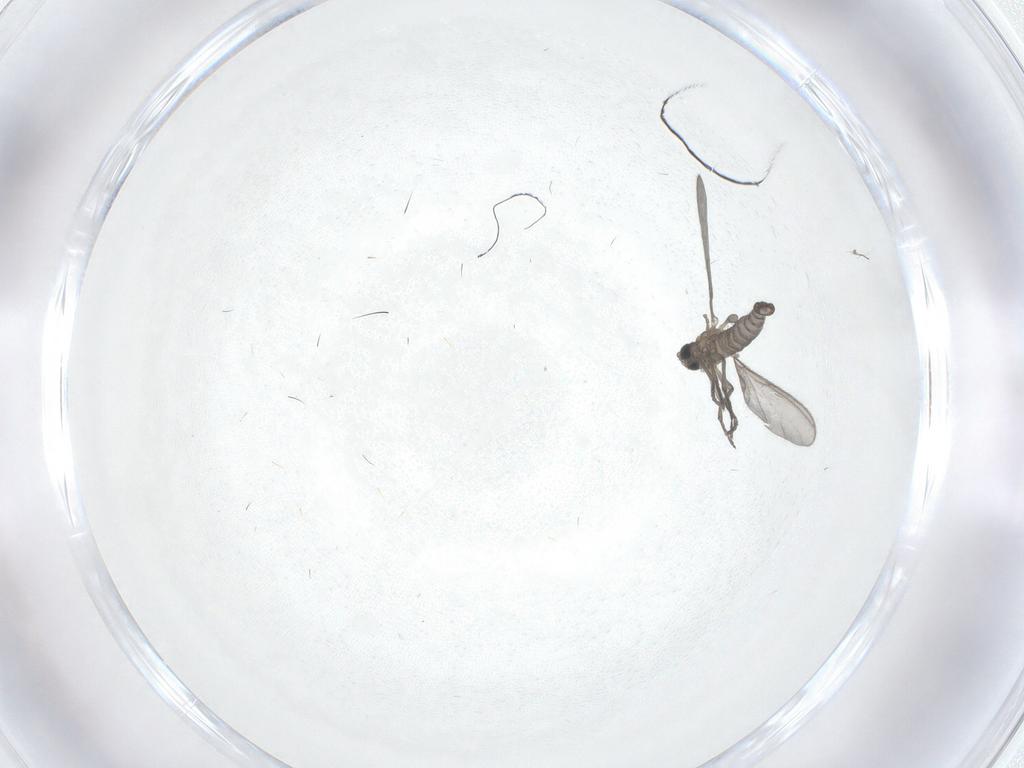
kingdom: Animalia
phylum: Arthropoda
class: Insecta
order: Diptera
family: Sciaridae
